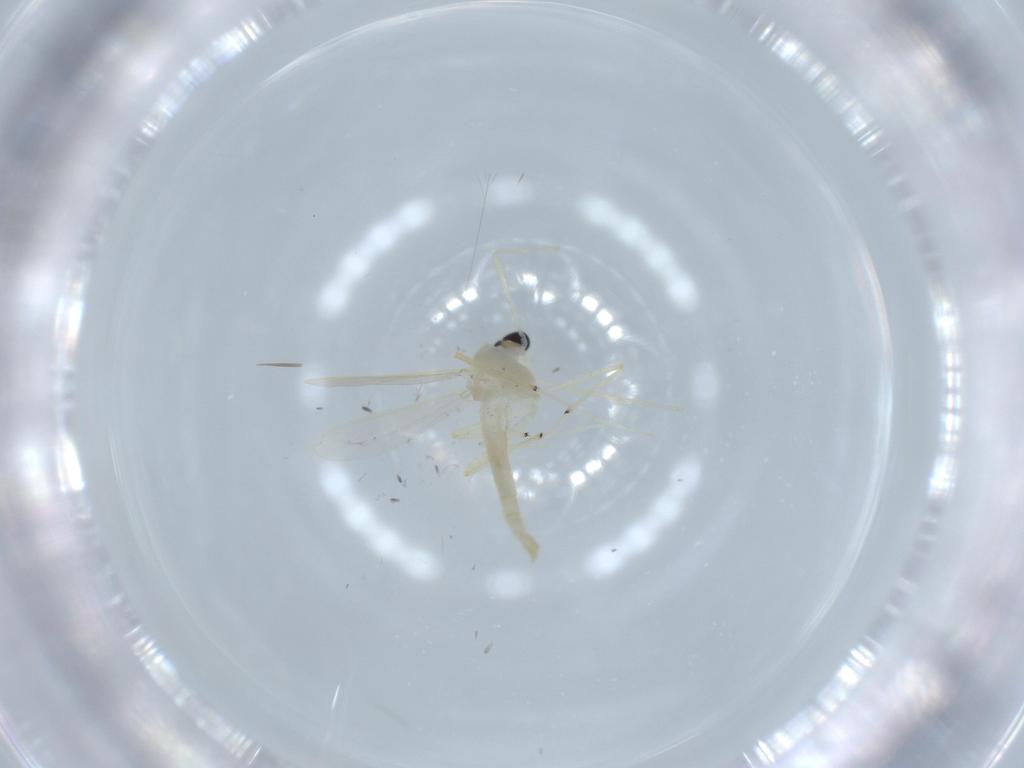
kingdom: Animalia
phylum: Arthropoda
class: Insecta
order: Diptera
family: Chironomidae
